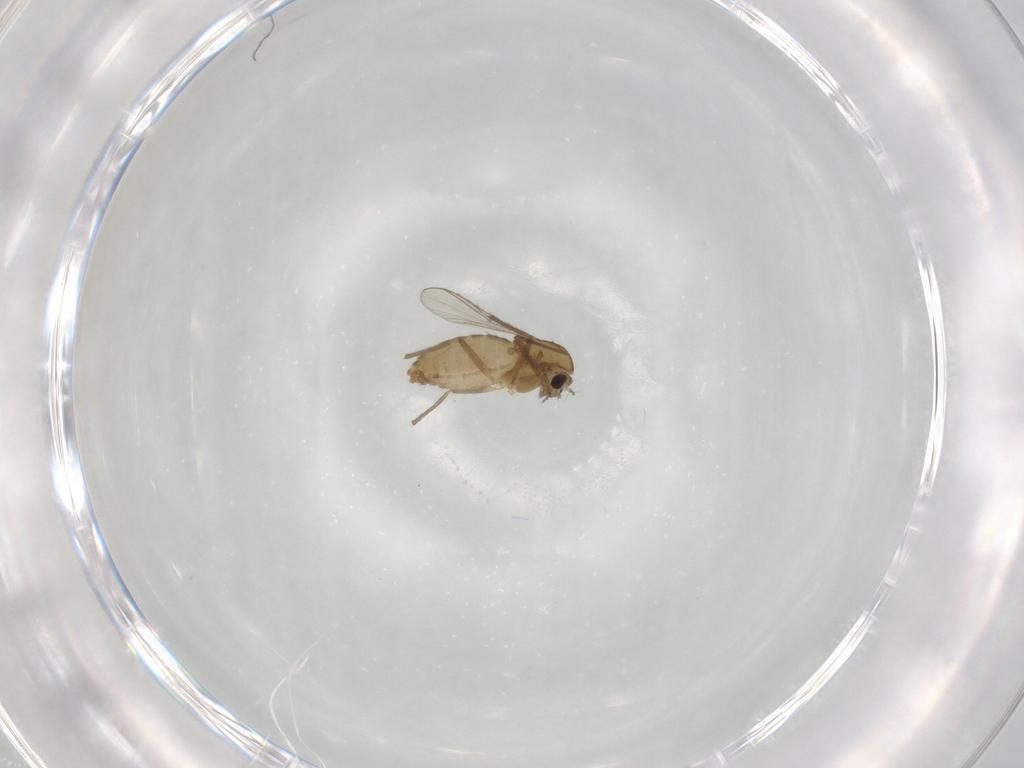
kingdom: Animalia
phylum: Arthropoda
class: Insecta
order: Diptera
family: Chironomidae
